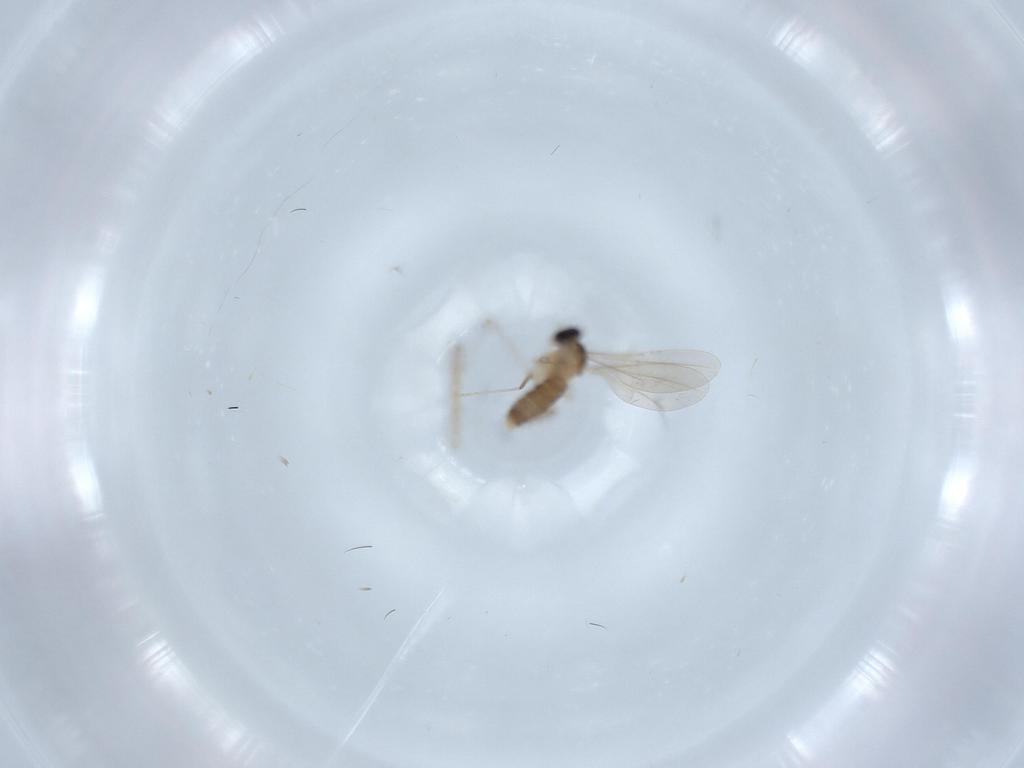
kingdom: Animalia
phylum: Arthropoda
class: Insecta
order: Diptera
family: Cecidomyiidae
